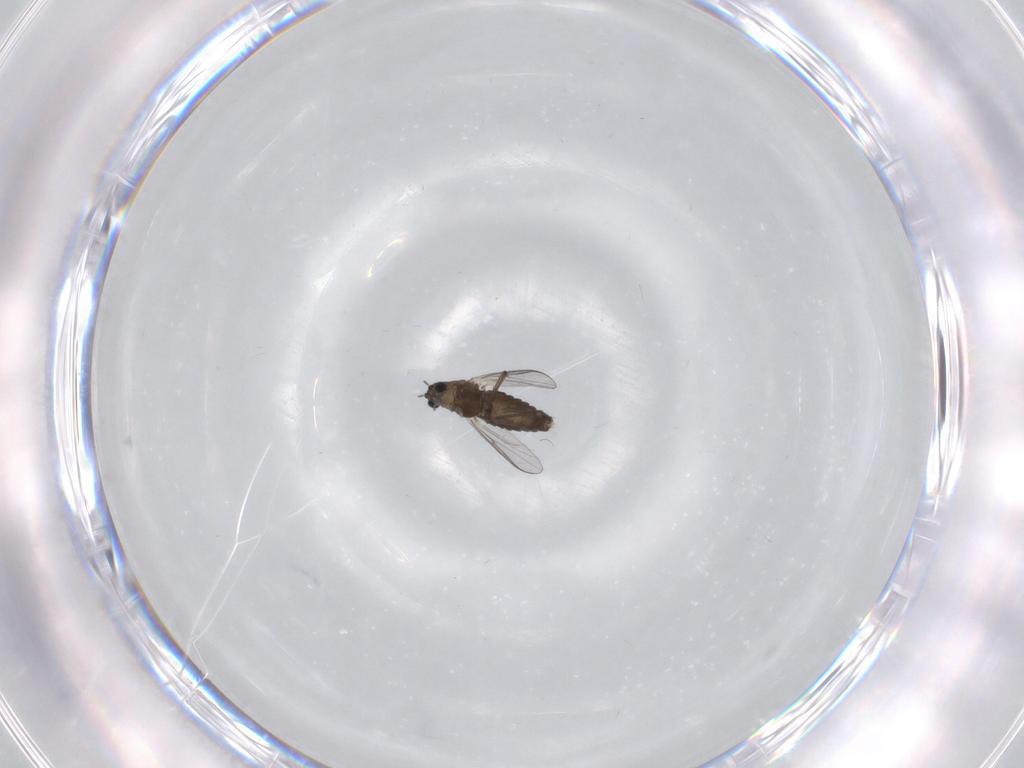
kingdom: Animalia
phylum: Arthropoda
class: Insecta
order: Diptera
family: Chironomidae
